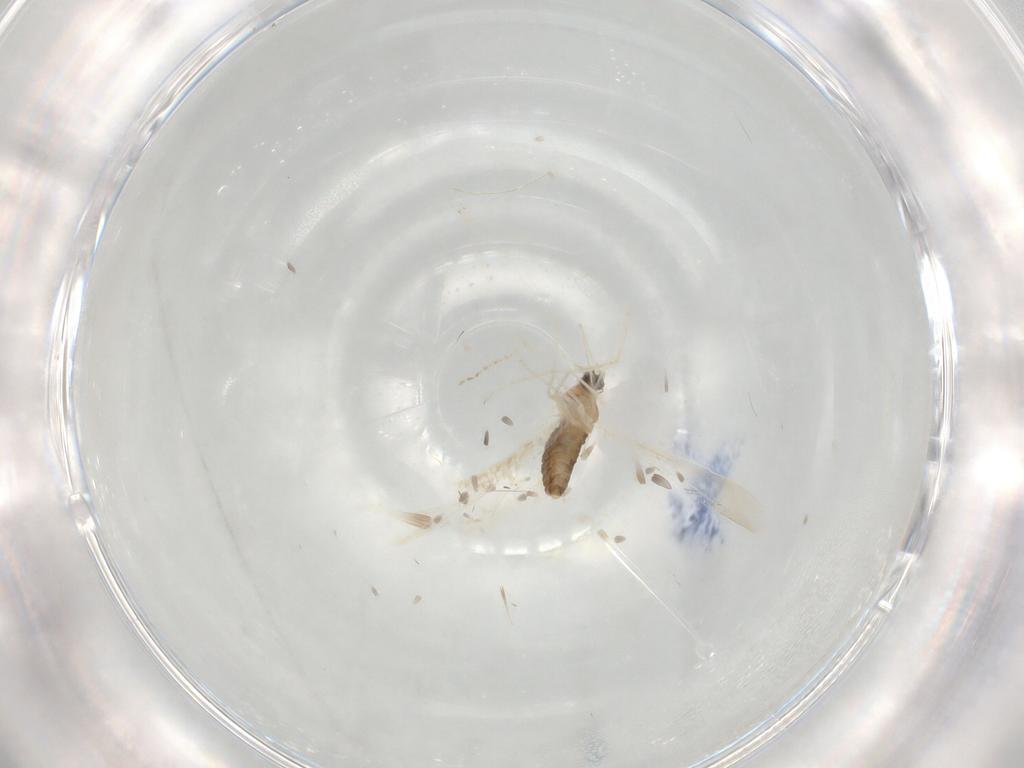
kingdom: Animalia
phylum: Arthropoda
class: Insecta
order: Diptera
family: Cecidomyiidae
